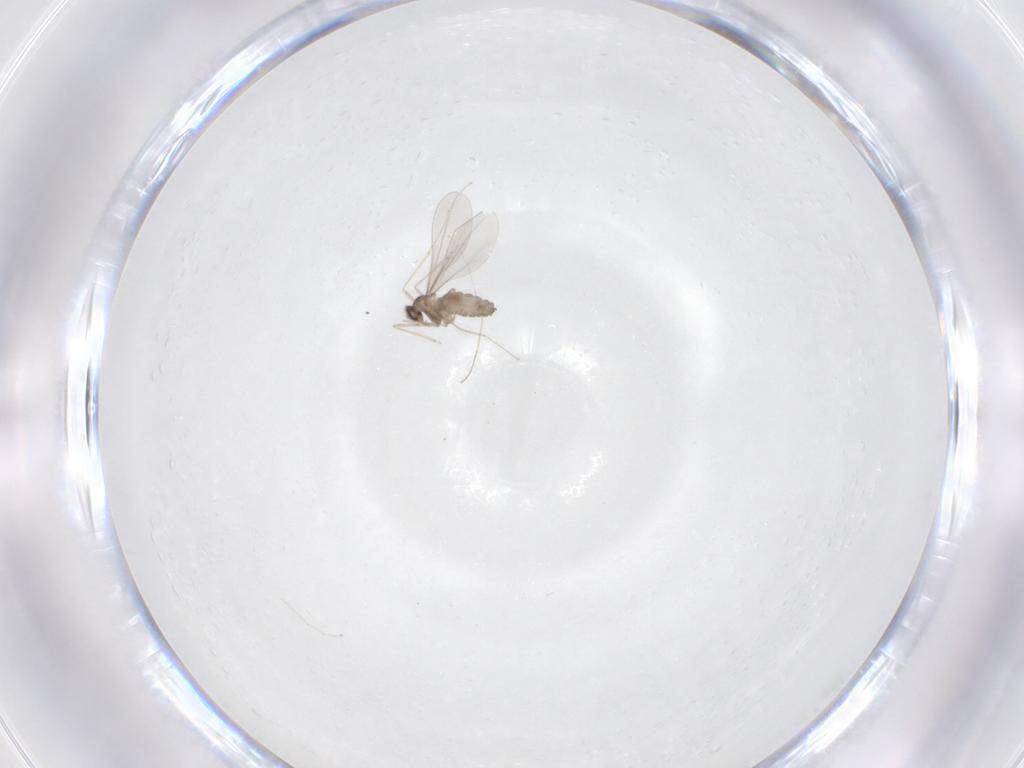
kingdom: Animalia
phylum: Arthropoda
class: Insecta
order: Diptera
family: Cecidomyiidae
